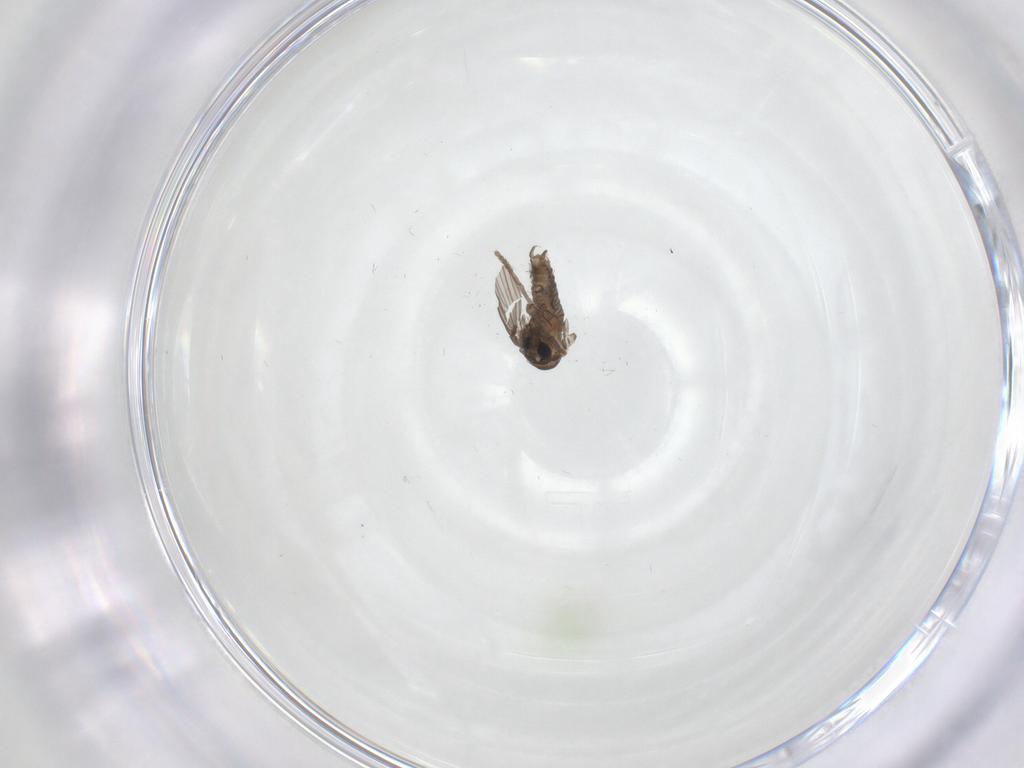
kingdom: Animalia
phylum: Arthropoda
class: Insecta
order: Diptera
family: Psychodidae
